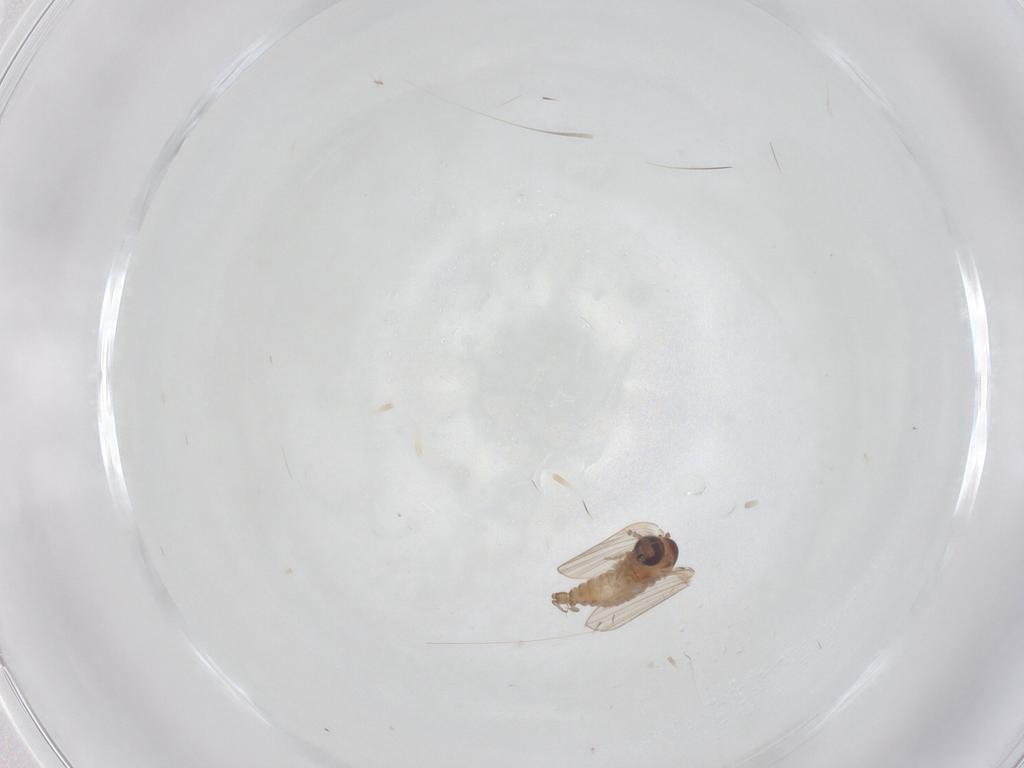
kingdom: Animalia
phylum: Arthropoda
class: Insecta
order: Diptera
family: Psychodidae
